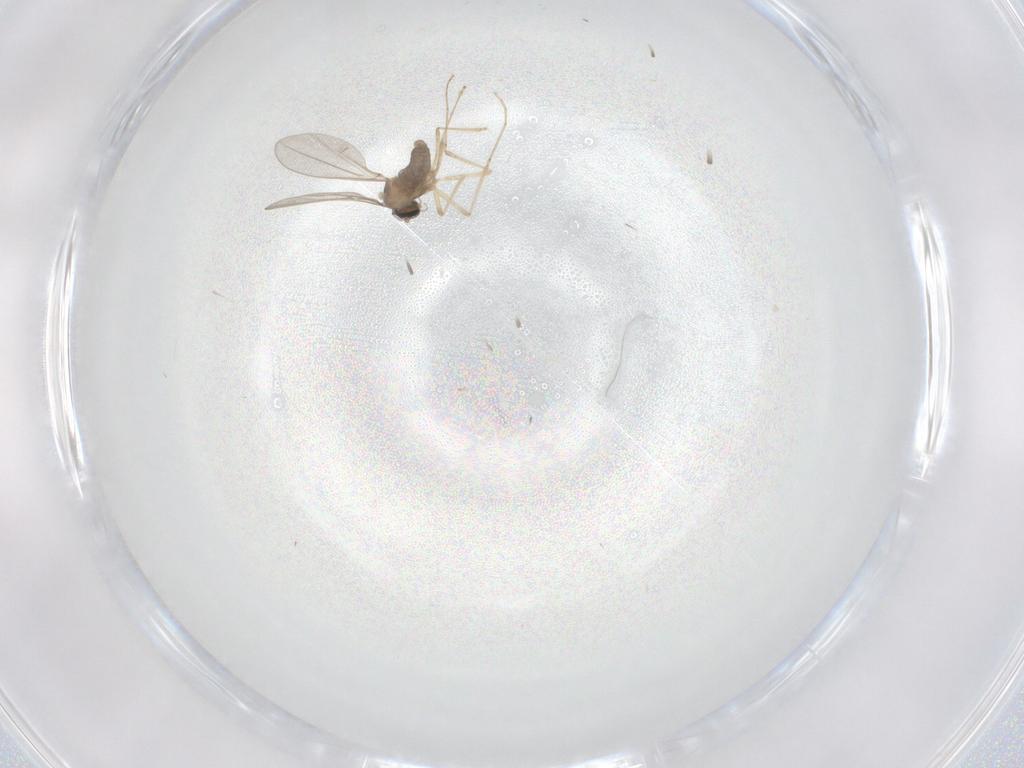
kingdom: Animalia
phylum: Arthropoda
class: Insecta
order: Diptera
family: Cecidomyiidae
